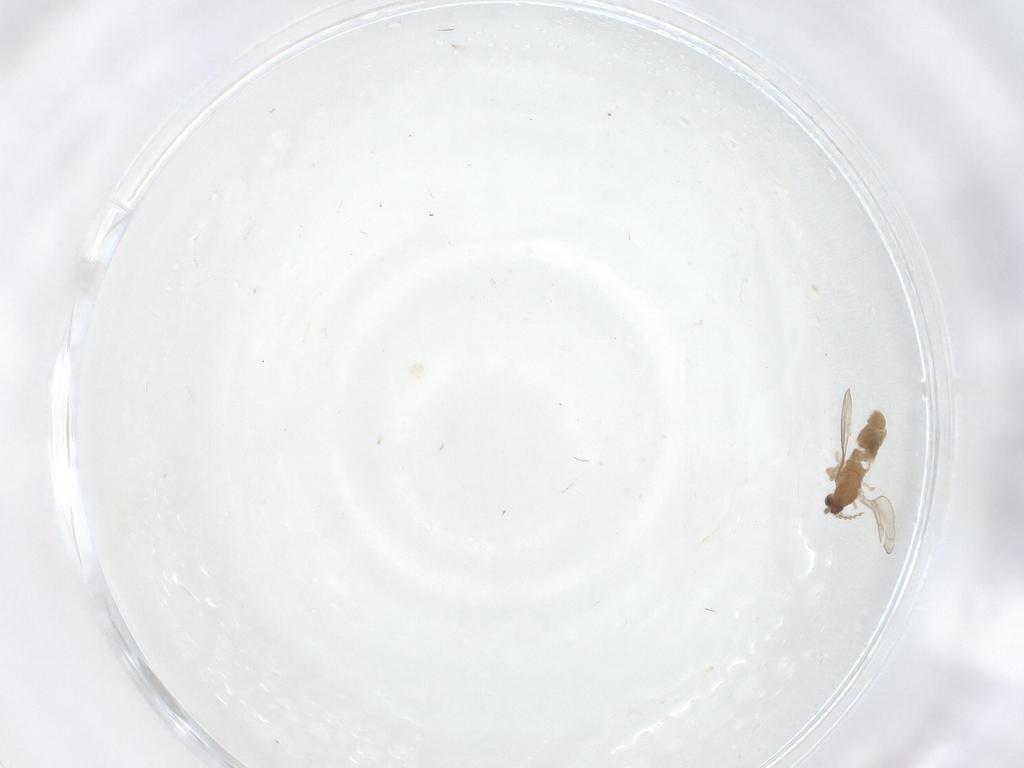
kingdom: Animalia
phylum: Arthropoda
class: Insecta
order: Diptera
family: Cecidomyiidae
